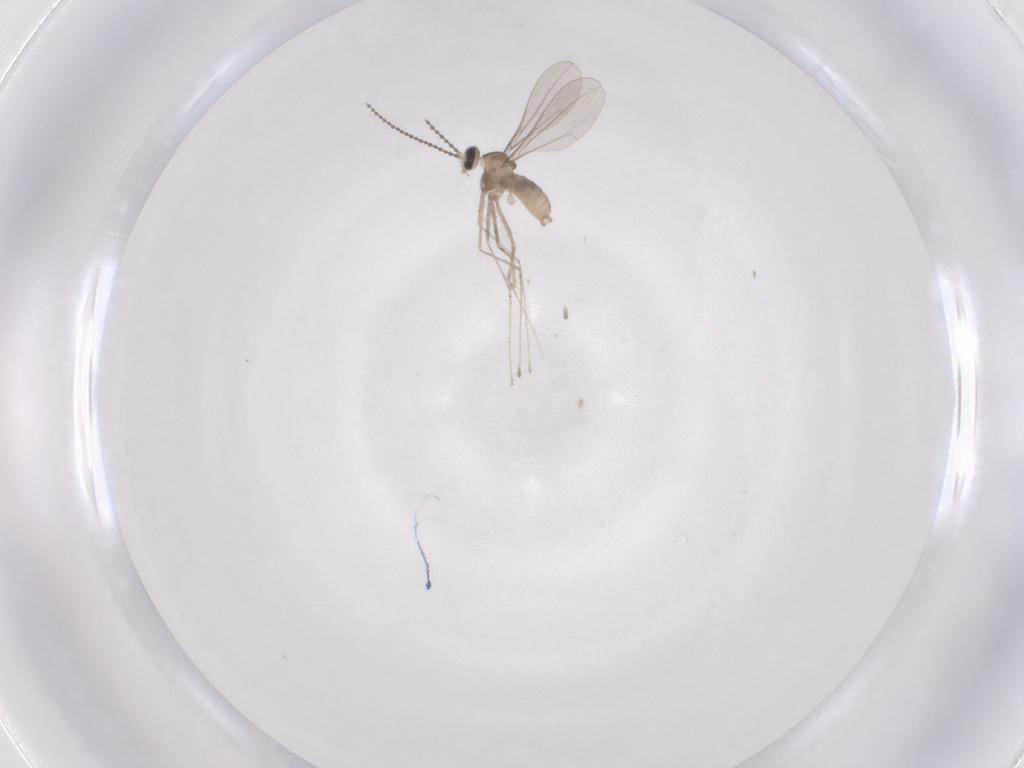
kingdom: Animalia
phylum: Arthropoda
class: Insecta
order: Diptera
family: Cecidomyiidae
